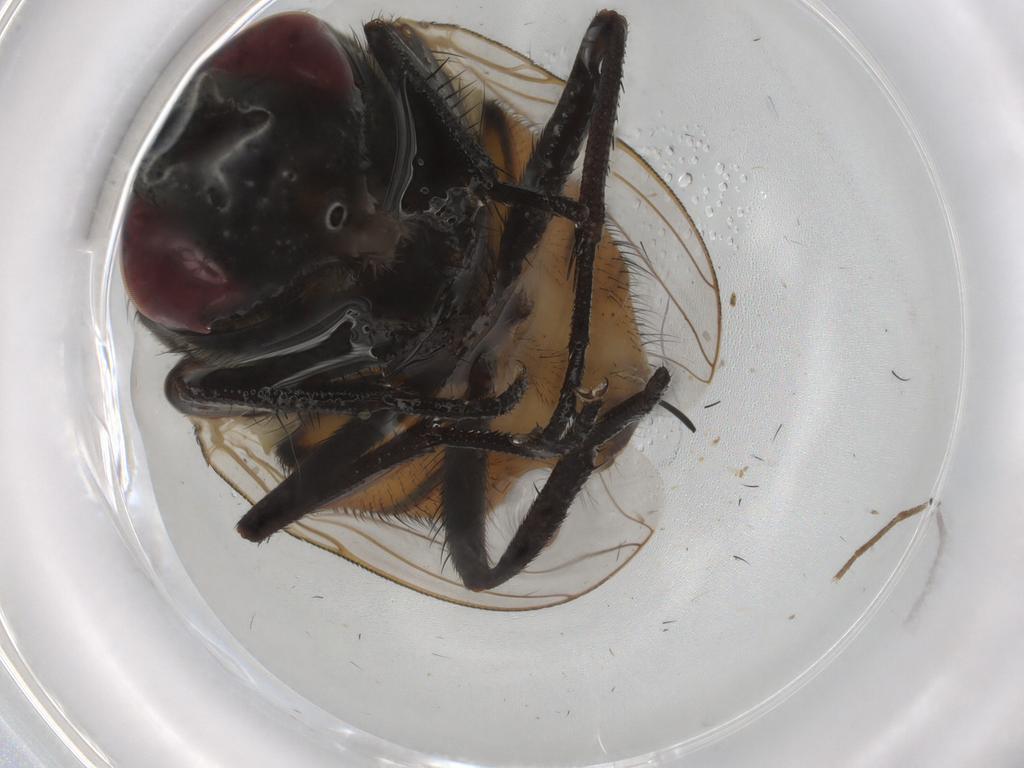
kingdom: Animalia
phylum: Arthropoda
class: Insecta
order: Diptera
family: Muscidae
